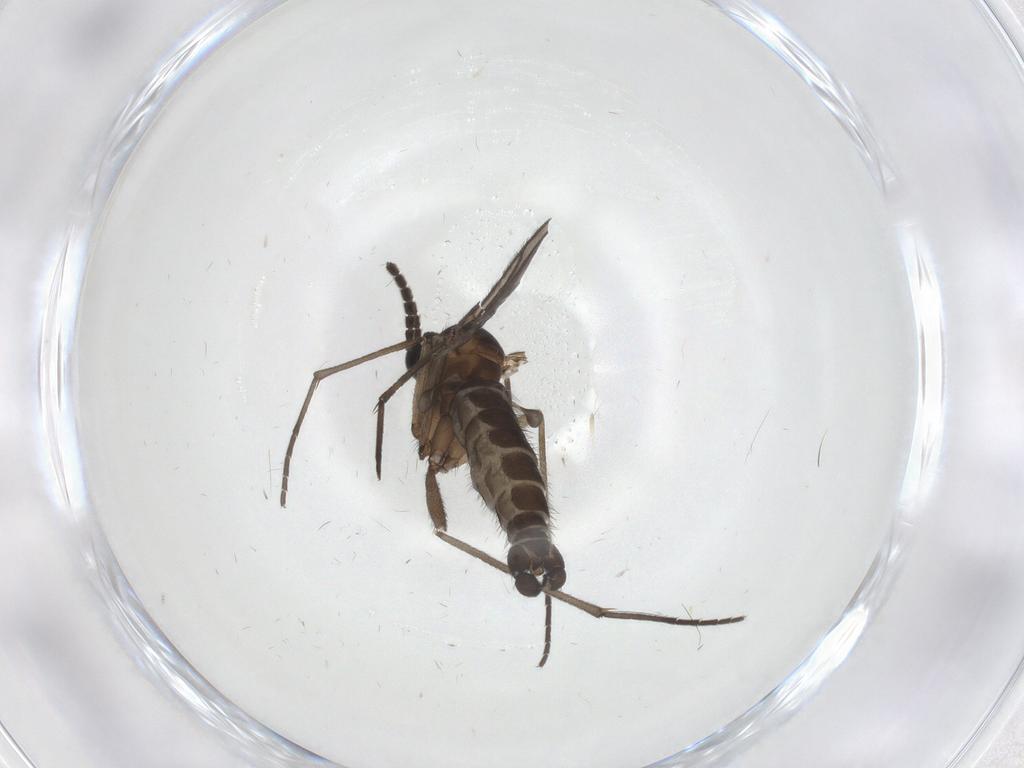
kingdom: Animalia
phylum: Arthropoda
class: Insecta
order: Diptera
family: Sciaridae
